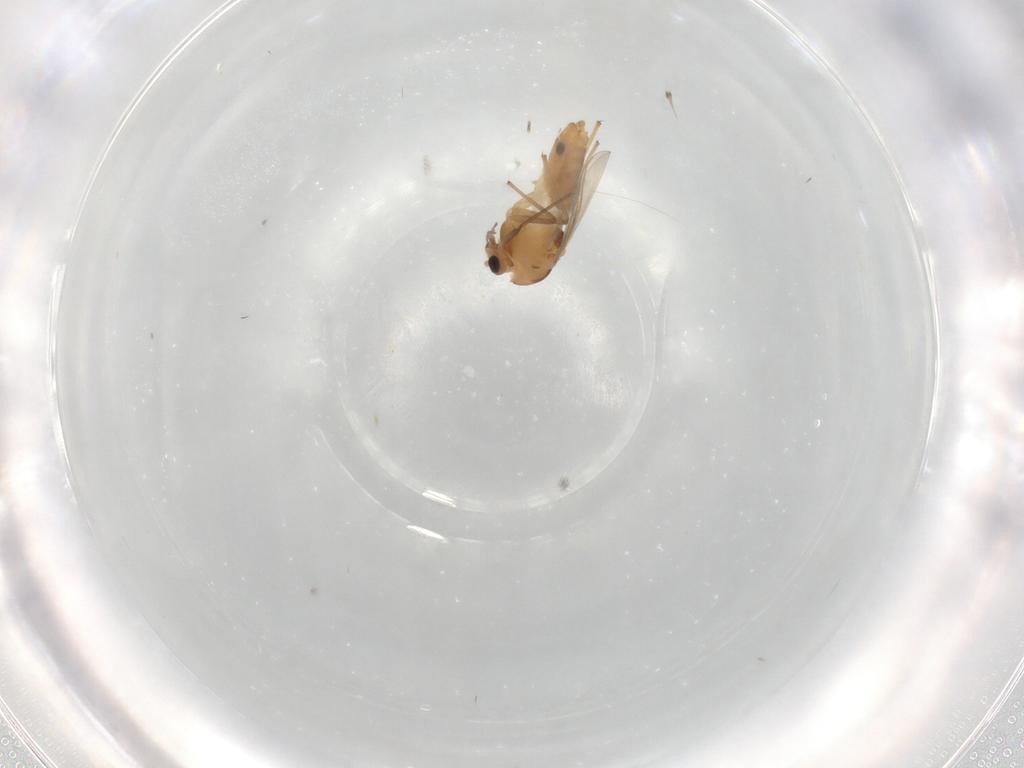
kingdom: Animalia
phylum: Arthropoda
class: Insecta
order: Diptera
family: Chironomidae
